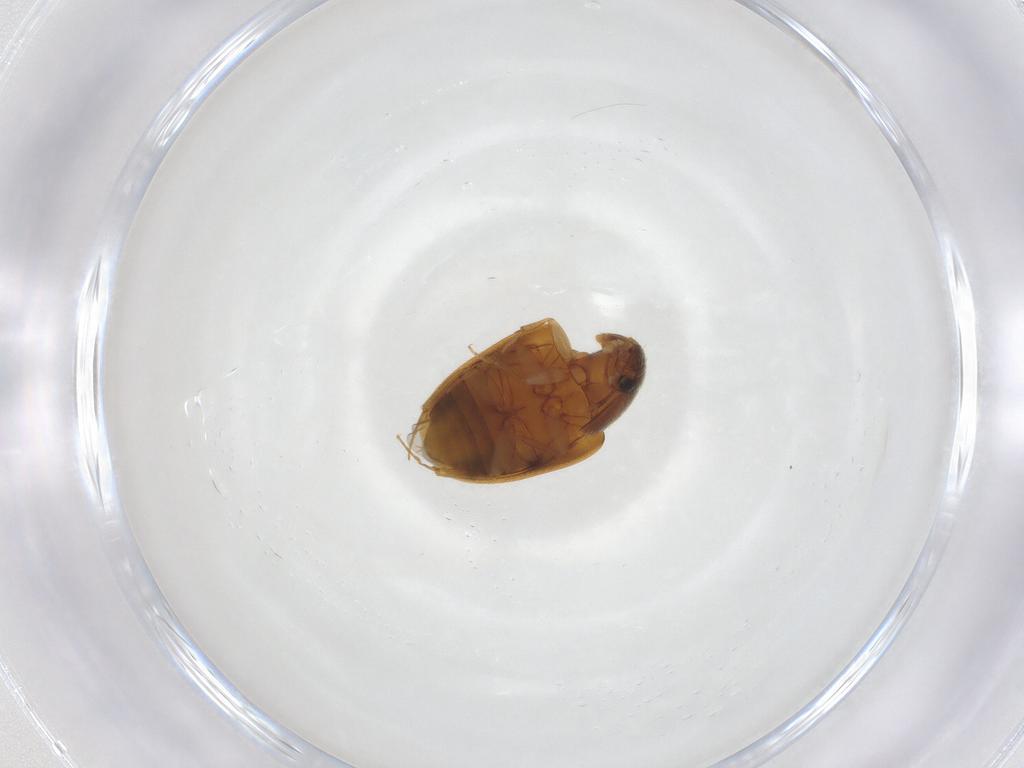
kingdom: Animalia
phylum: Arthropoda
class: Insecta
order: Coleoptera
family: Mycetophagidae
